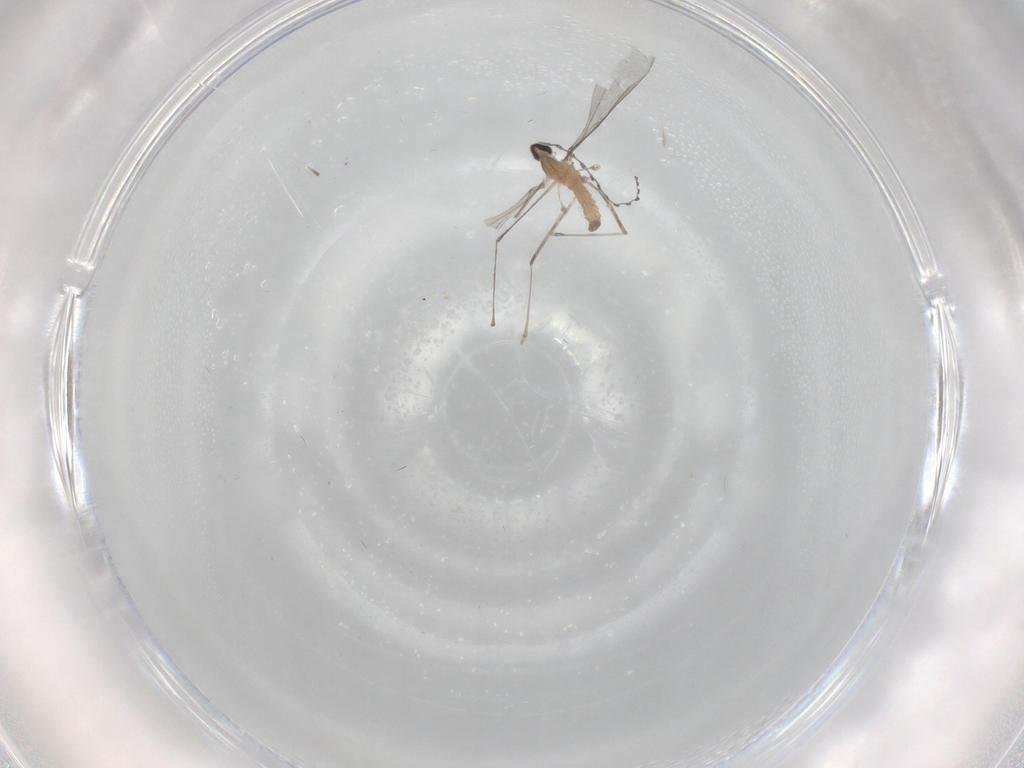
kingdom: Animalia
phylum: Arthropoda
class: Insecta
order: Diptera
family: Cecidomyiidae
